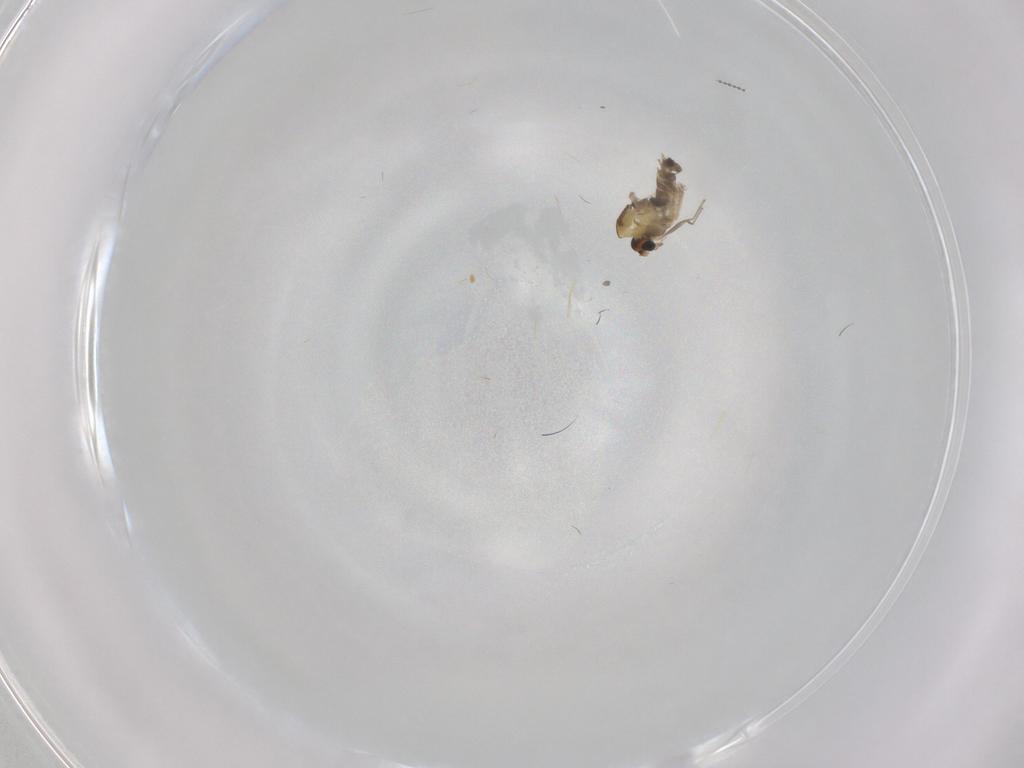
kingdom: Animalia
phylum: Arthropoda
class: Insecta
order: Diptera
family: Chironomidae
